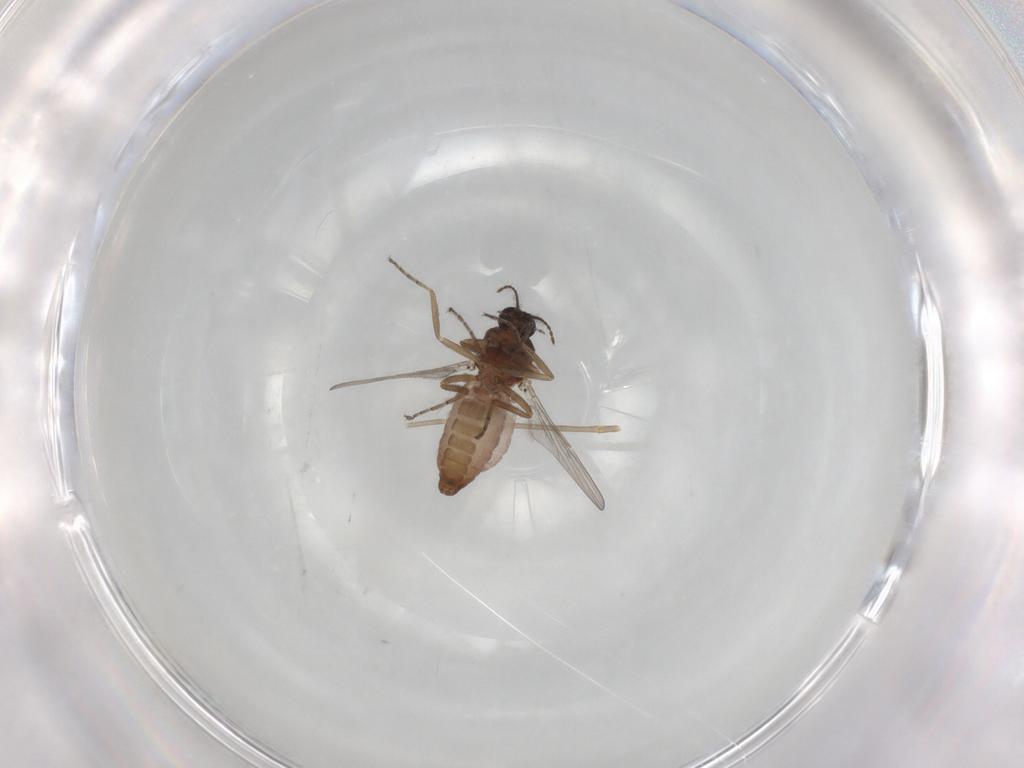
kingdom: Animalia
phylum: Arthropoda
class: Insecta
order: Diptera
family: Ceratopogonidae
